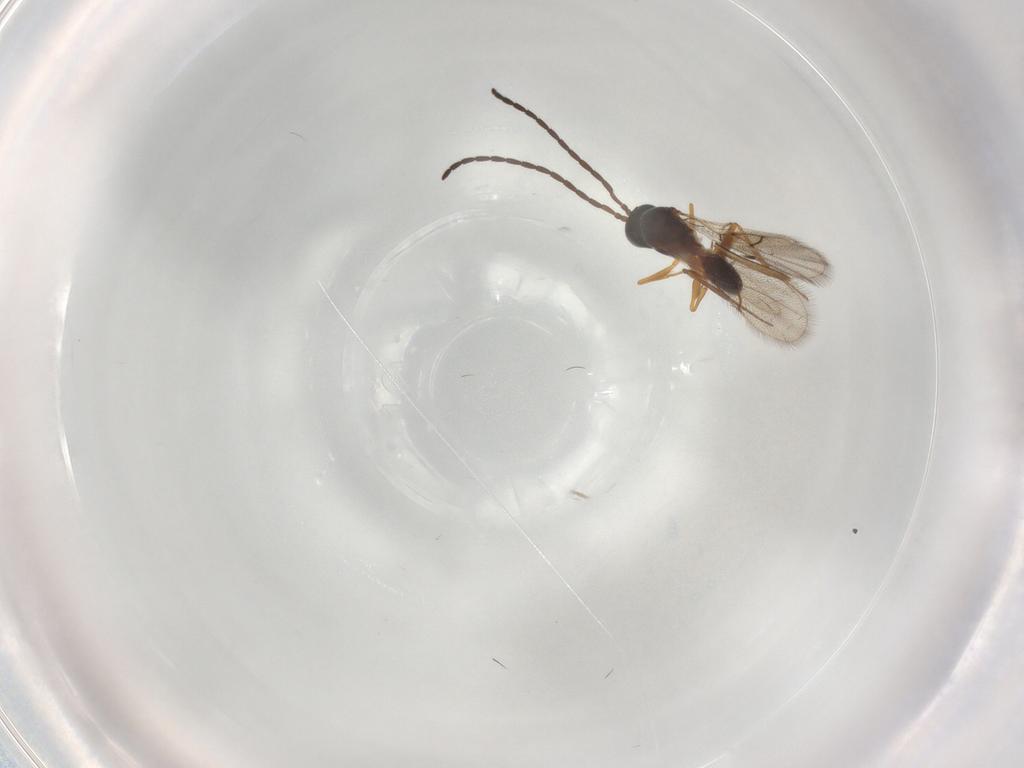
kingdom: Animalia
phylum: Arthropoda
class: Insecta
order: Hymenoptera
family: Figitidae
